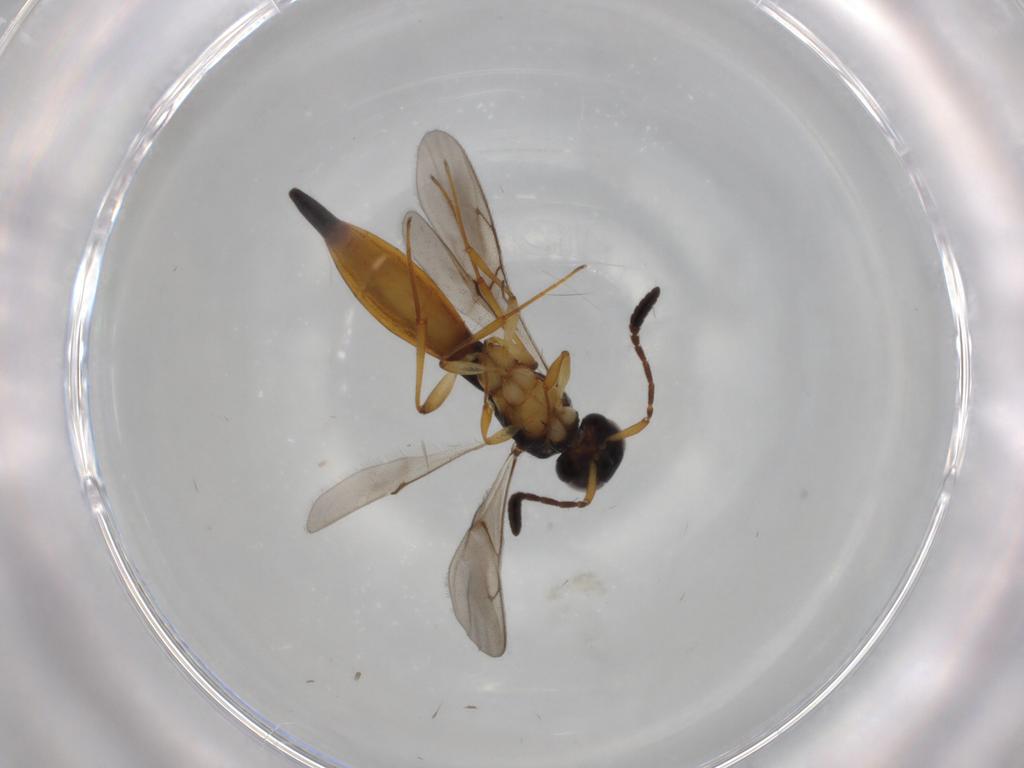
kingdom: Animalia
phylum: Arthropoda
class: Insecta
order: Hymenoptera
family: Scelionidae
